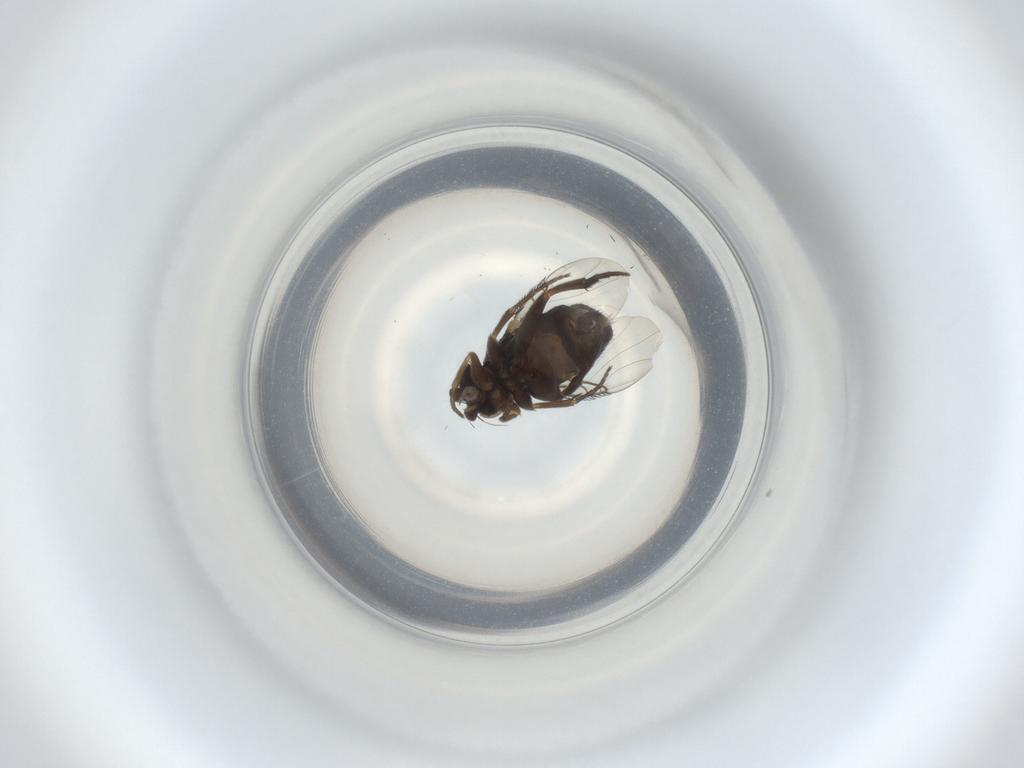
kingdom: Animalia
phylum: Arthropoda
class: Insecta
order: Diptera
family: Phoridae
